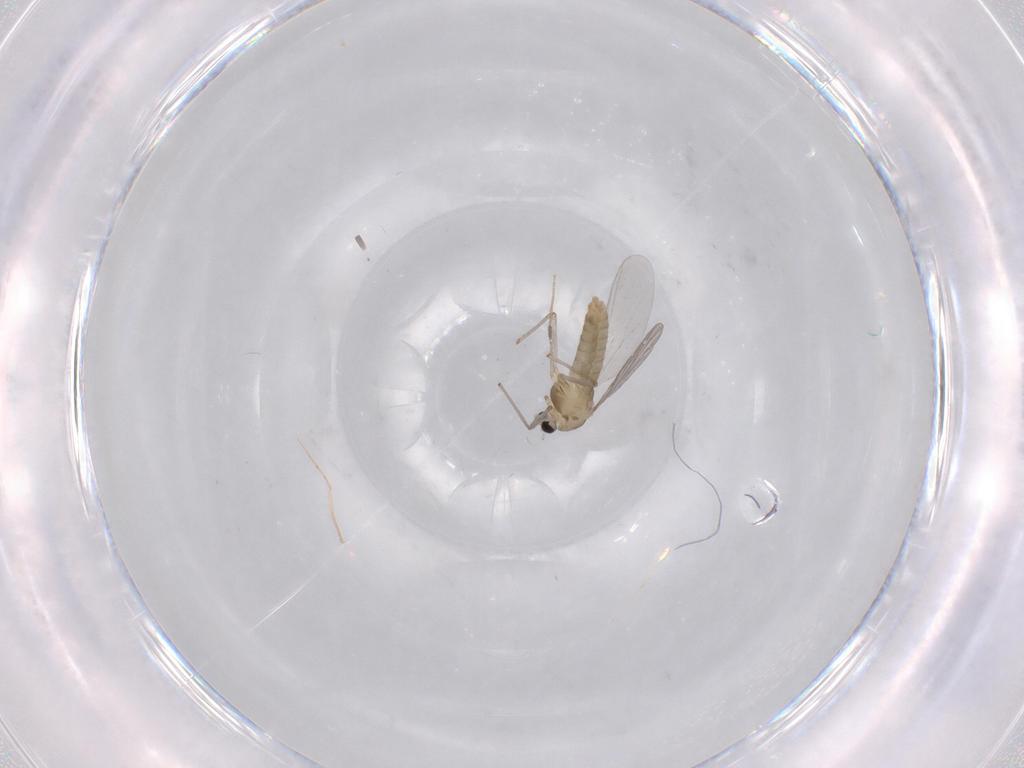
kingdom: Animalia
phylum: Arthropoda
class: Insecta
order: Diptera
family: Chironomidae
